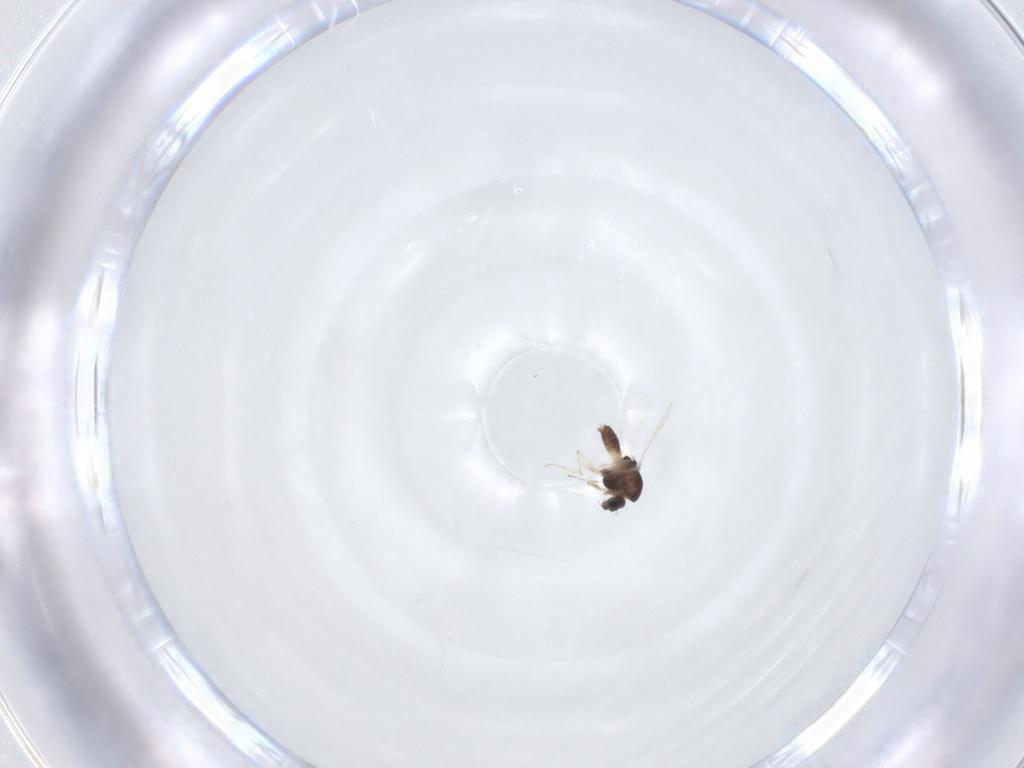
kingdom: Animalia
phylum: Arthropoda
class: Insecta
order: Diptera
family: Chironomidae
